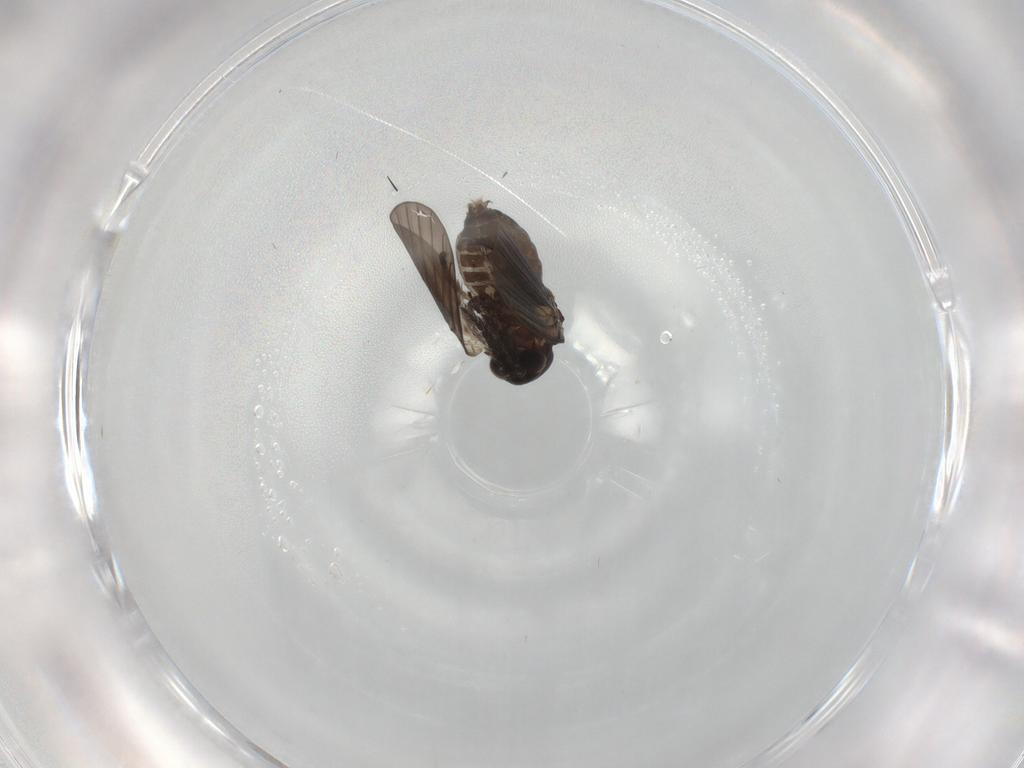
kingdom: Animalia
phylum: Arthropoda
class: Insecta
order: Diptera
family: Psychodidae
